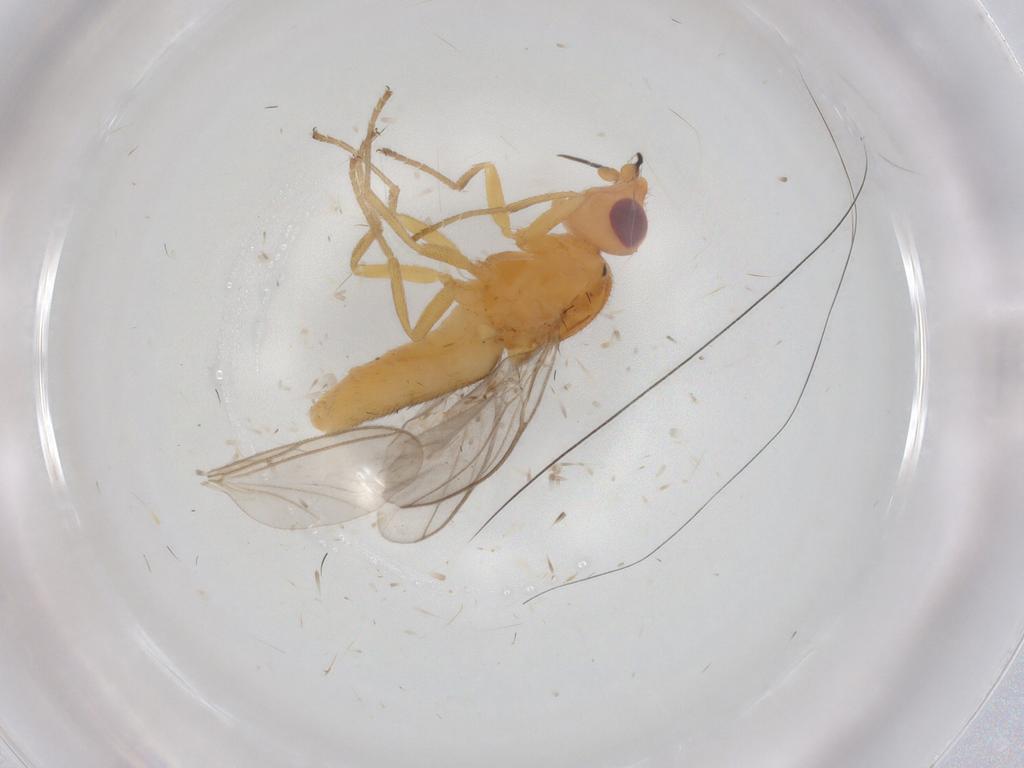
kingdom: Animalia
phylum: Arthropoda
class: Insecta
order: Diptera
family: Chloropidae
